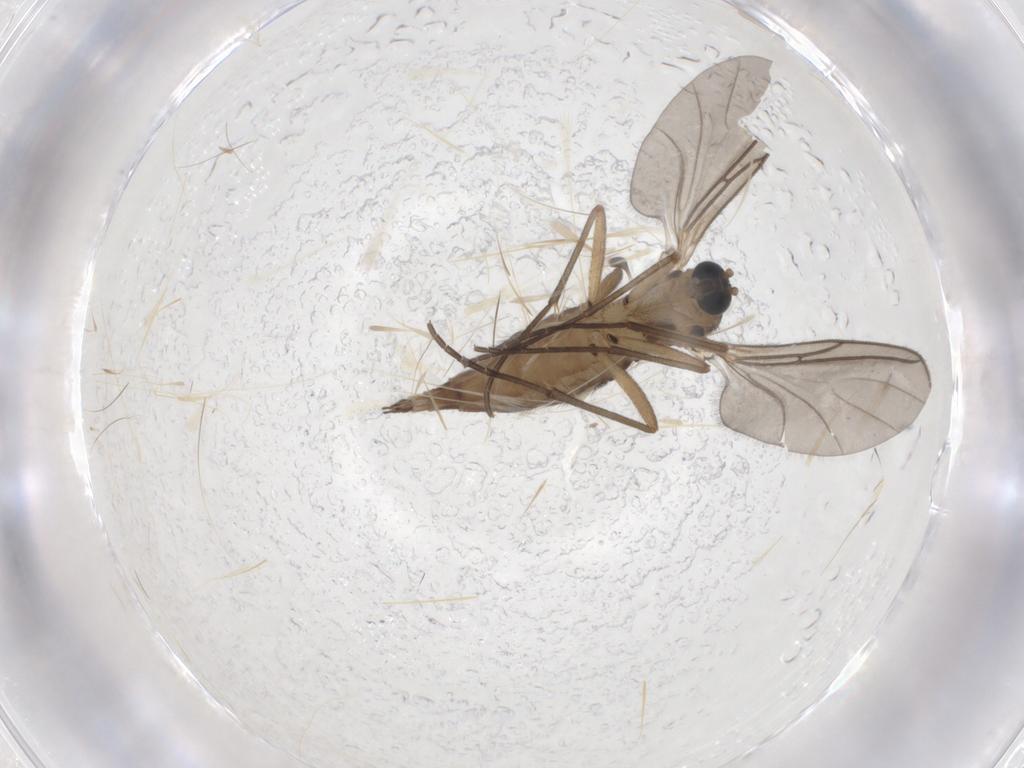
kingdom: Animalia
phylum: Arthropoda
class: Insecta
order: Diptera
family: Sciaridae
